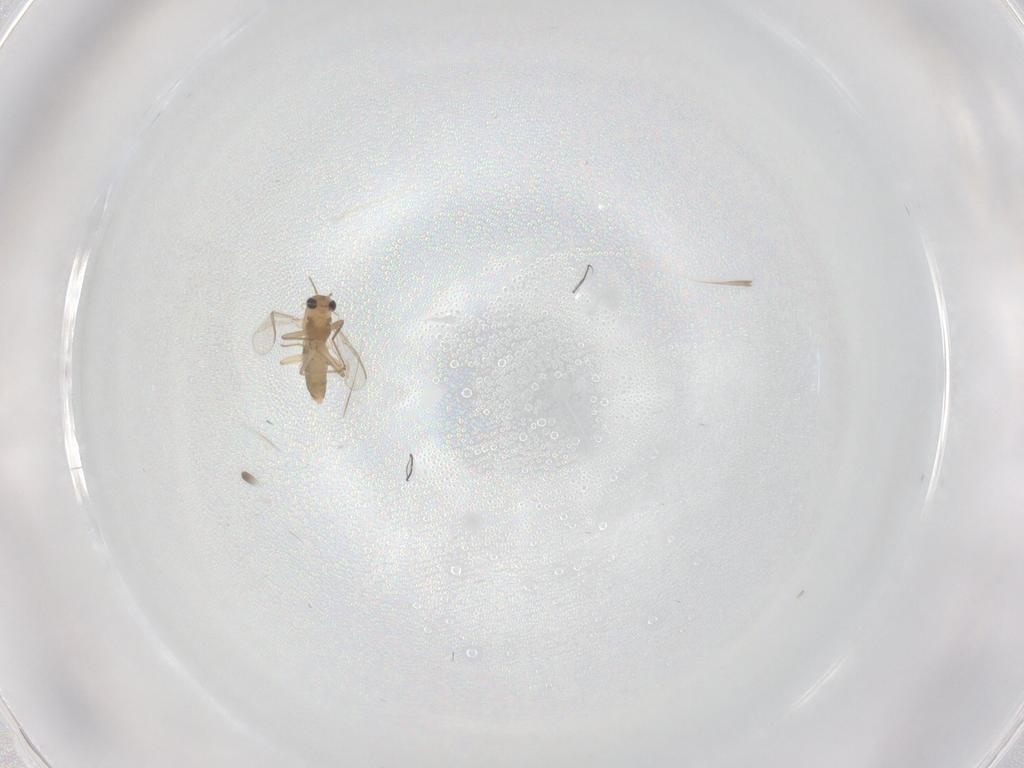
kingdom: Animalia
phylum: Arthropoda
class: Insecta
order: Diptera
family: Chironomidae
